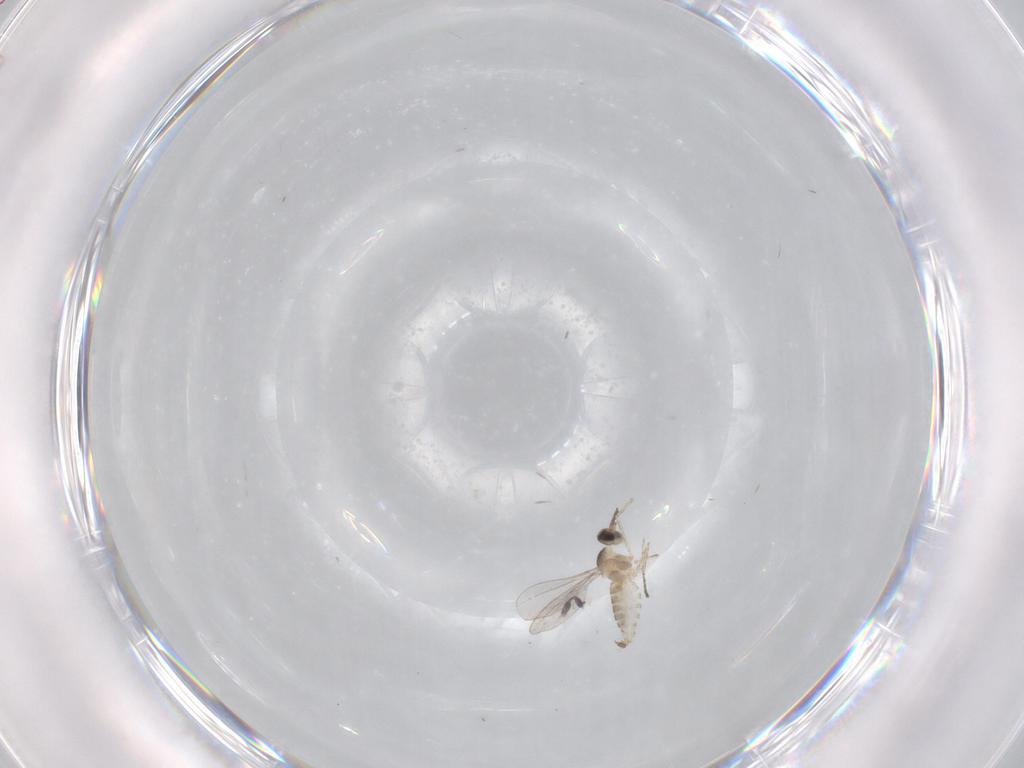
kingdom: Animalia
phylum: Arthropoda
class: Insecta
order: Diptera
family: Cecidomyiidae
